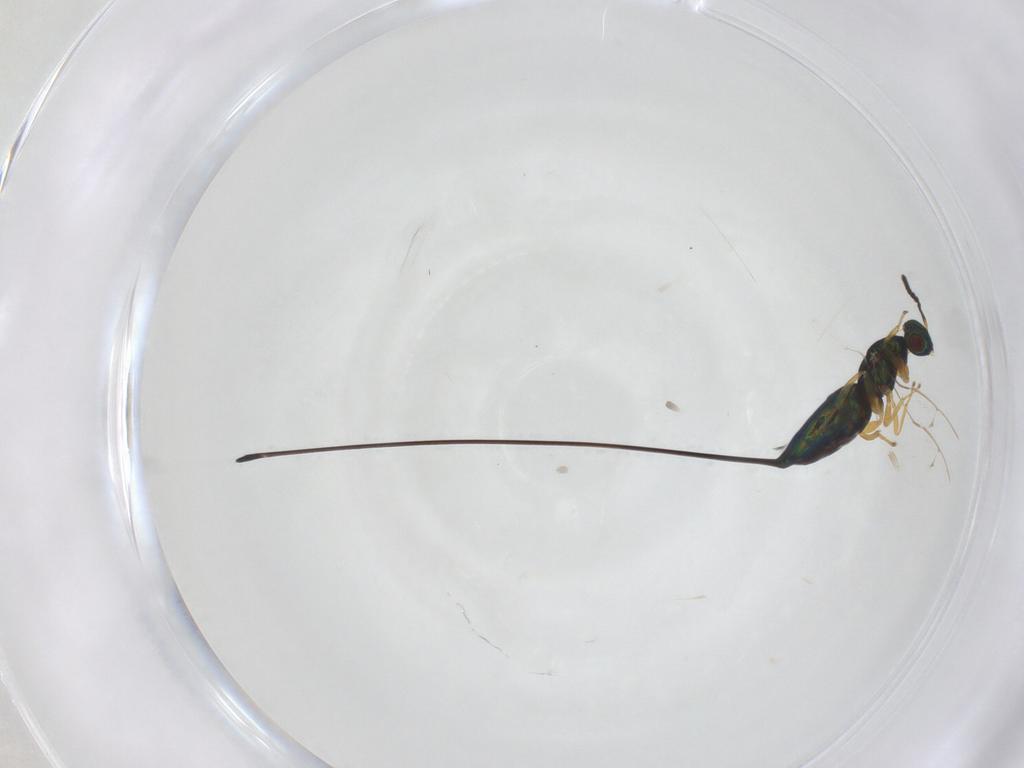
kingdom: Animalia
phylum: Arthropoda
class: Insecta
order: Hymenoptera
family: Pteromalidae
